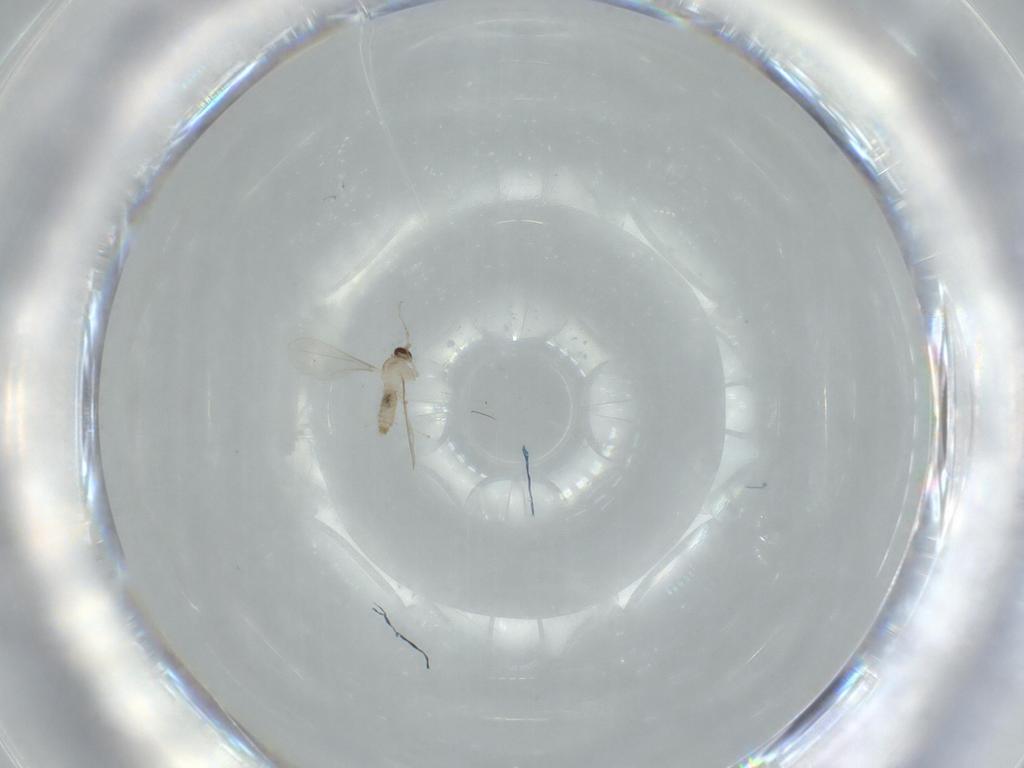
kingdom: Animalia
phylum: Arthropoda
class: Insecta
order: Diptera
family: Cecidomyiidae
